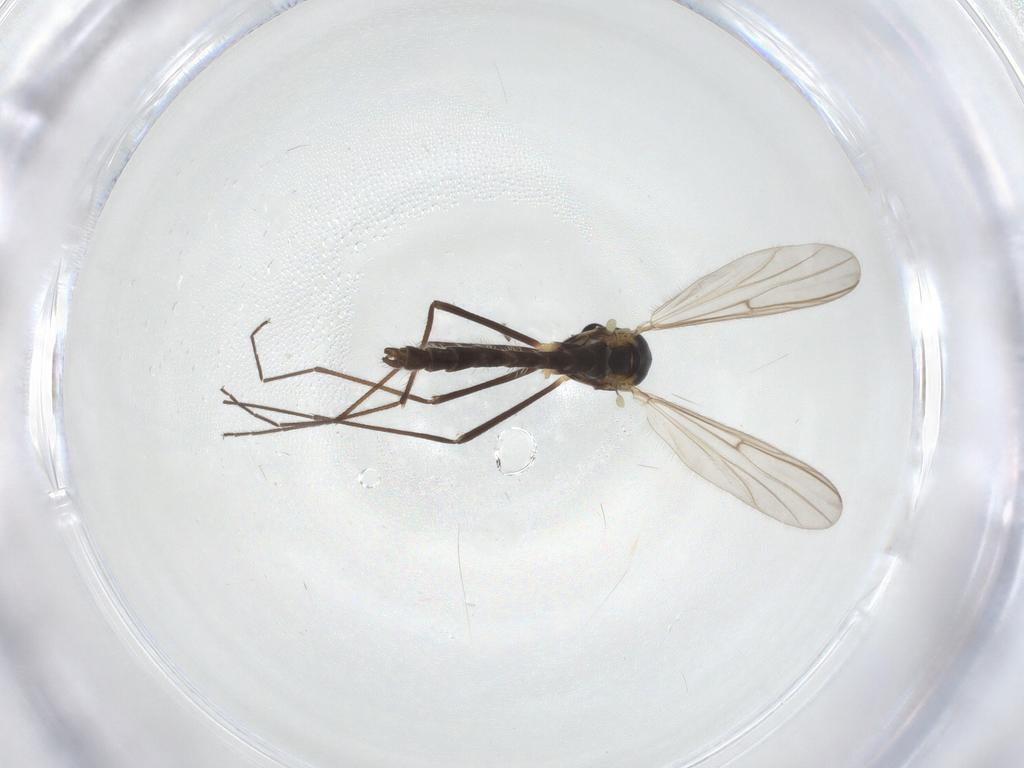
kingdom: Animalia
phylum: Arthropoda
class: Insecta
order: Diptera
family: Chironomidae
